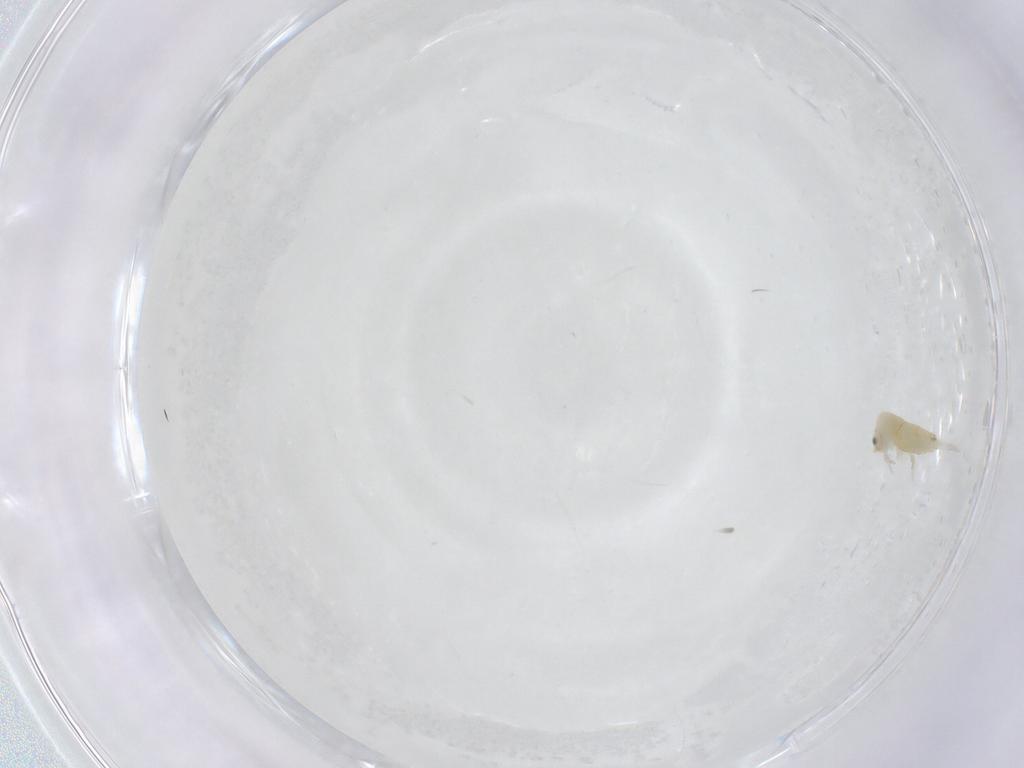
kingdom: Animalia
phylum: Arthropoda
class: Collembola
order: Entomobryomorpha
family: Entomobryidae
